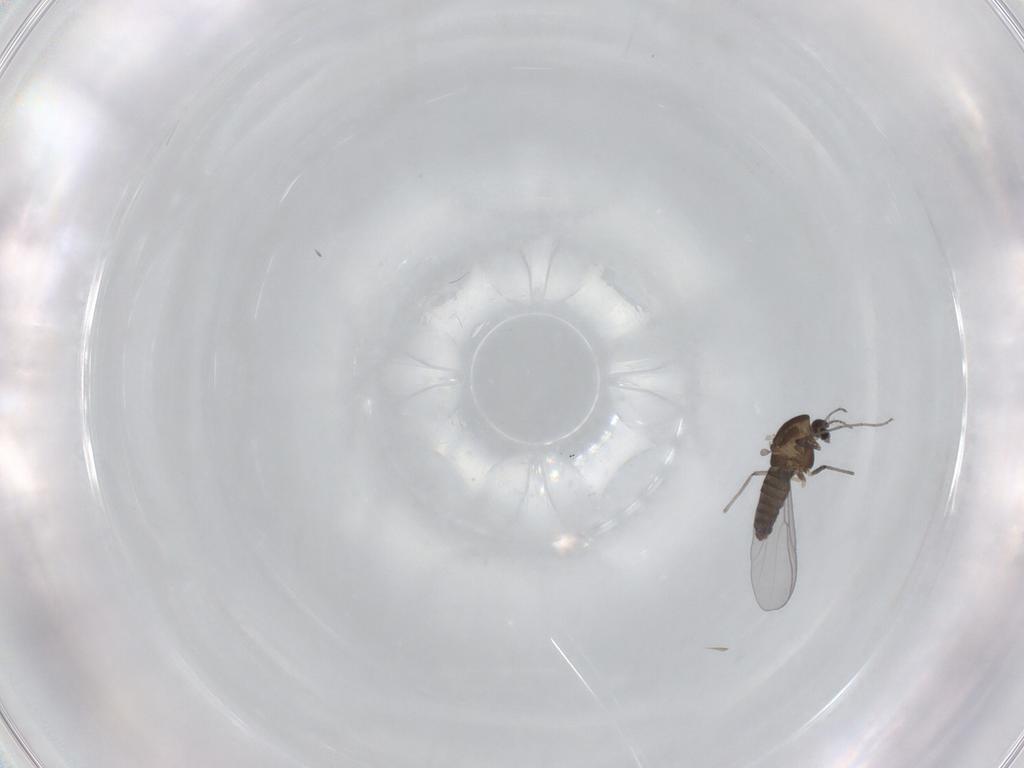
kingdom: Animalia
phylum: Arthropoda
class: Insecta
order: Diptera
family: Chironomidae
